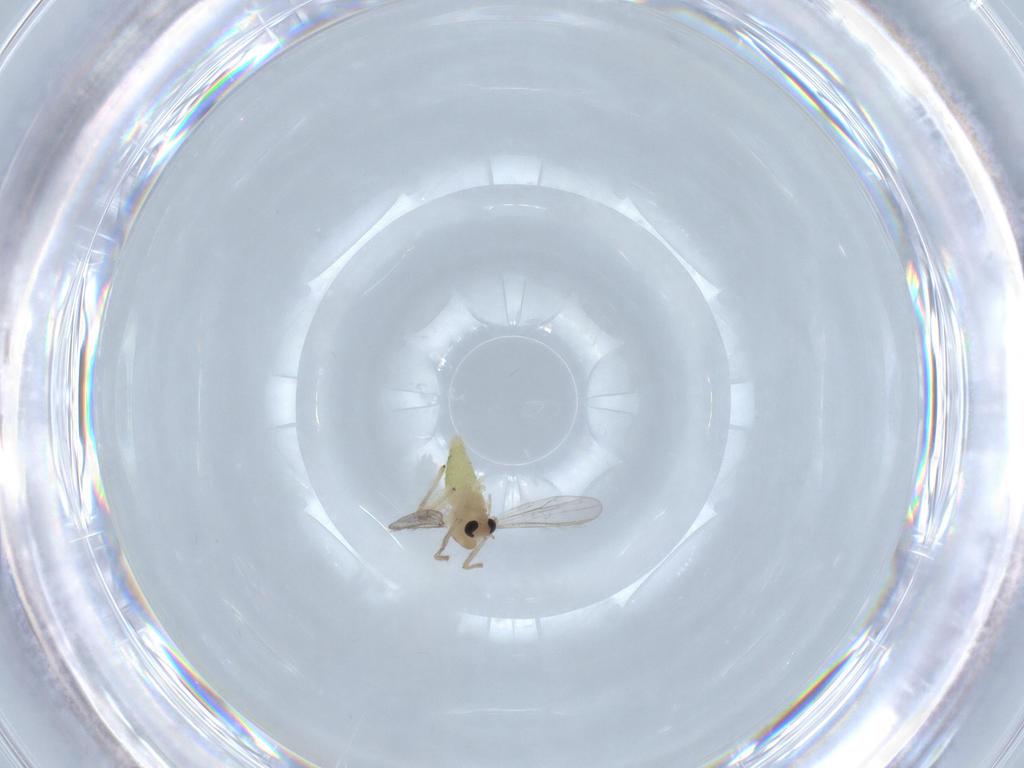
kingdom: Animalia
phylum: Arthropoda
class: Insecta
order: Diptera
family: Chironomidae
